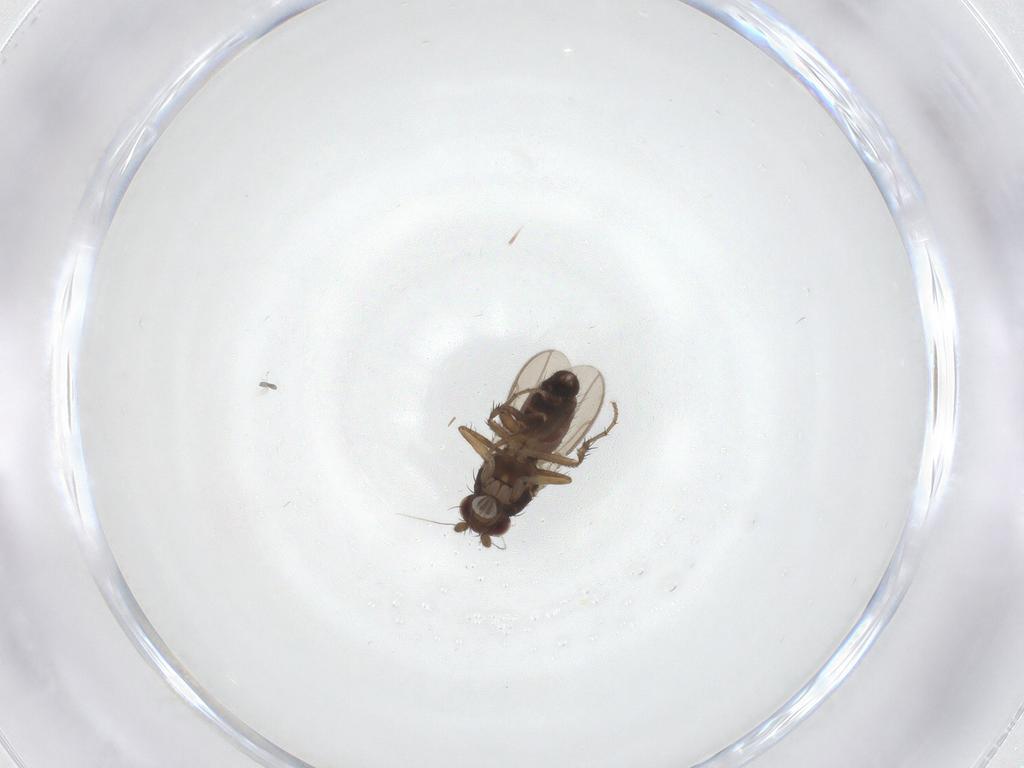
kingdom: Animalia
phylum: Arthropoda
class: Insecta
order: Diptera
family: Sphaeroceridae
